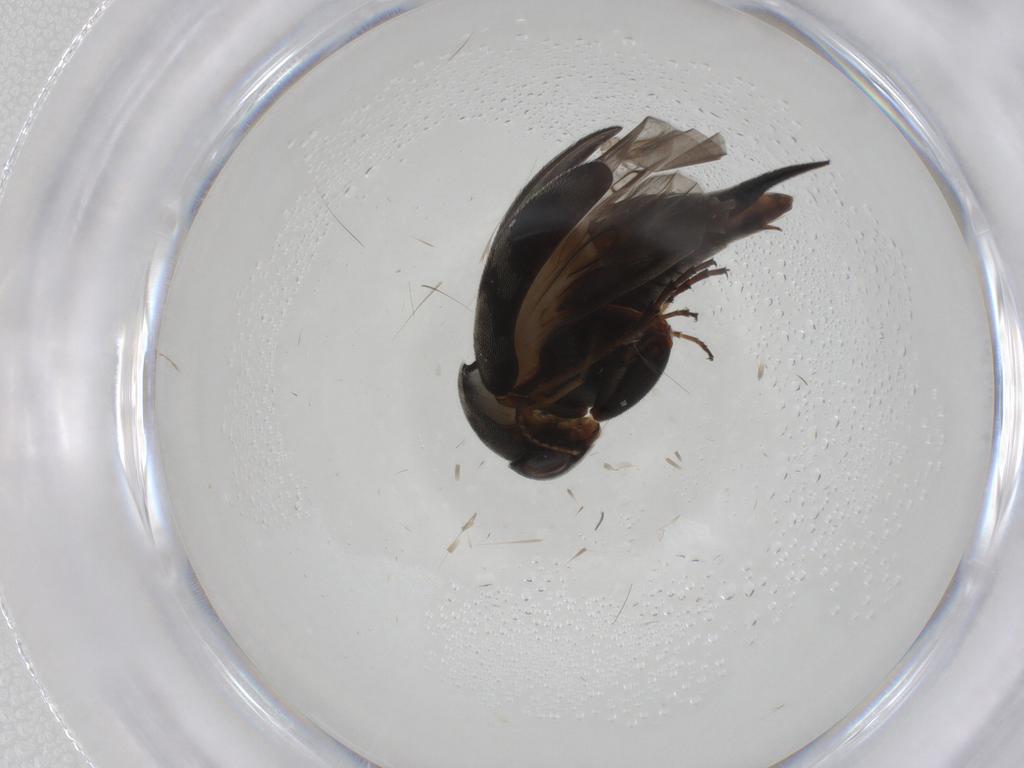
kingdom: Animalia
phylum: Arthropoda
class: Insecta
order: Coleoptera
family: Mordellidae
